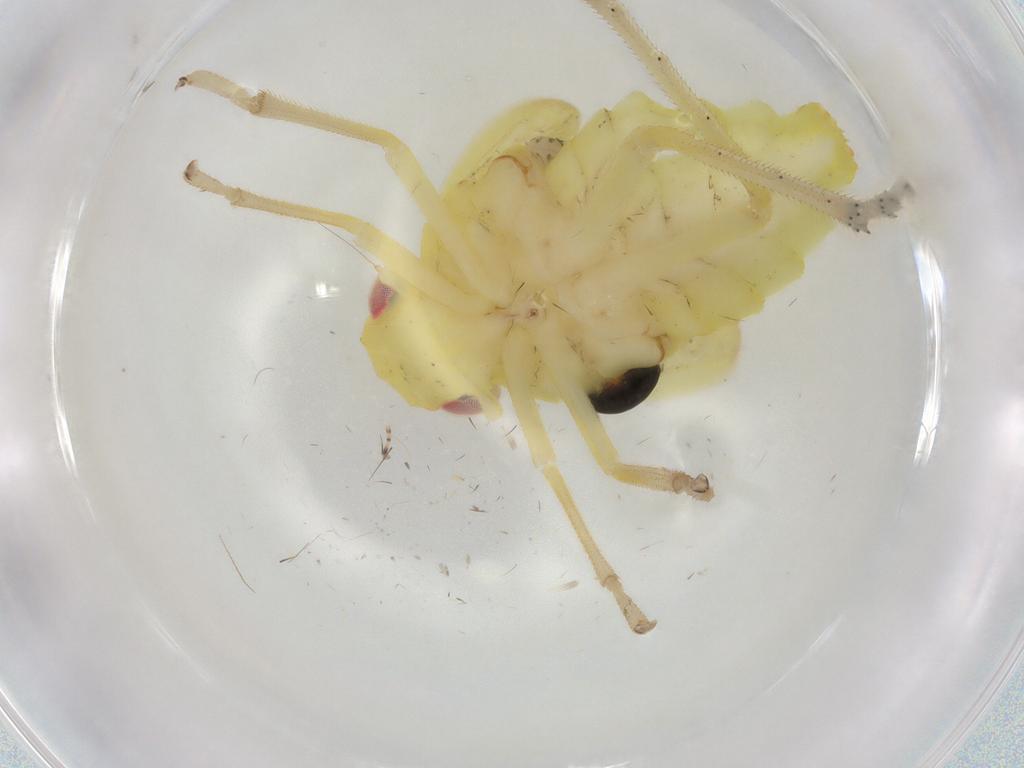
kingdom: Animalia
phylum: Arthropoda
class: Insecta
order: Hemiptera
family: Tropiduchidae
